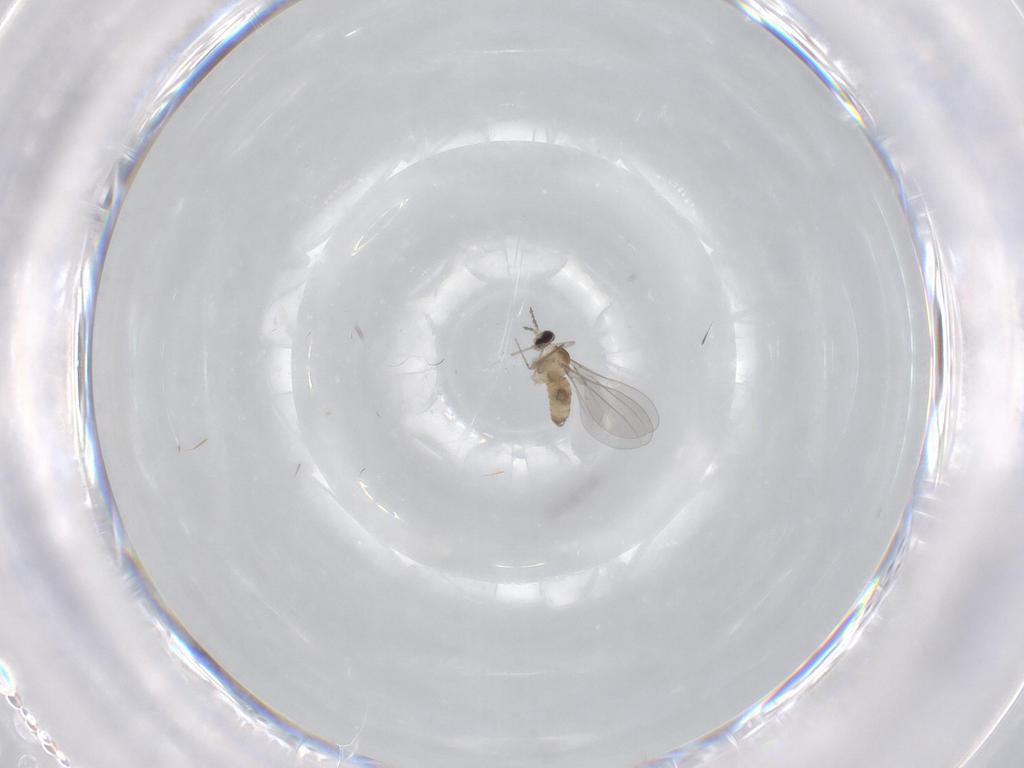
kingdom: Animalia
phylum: Arthropoda
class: Insecta
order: Diptera
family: Cecidomyiidae
